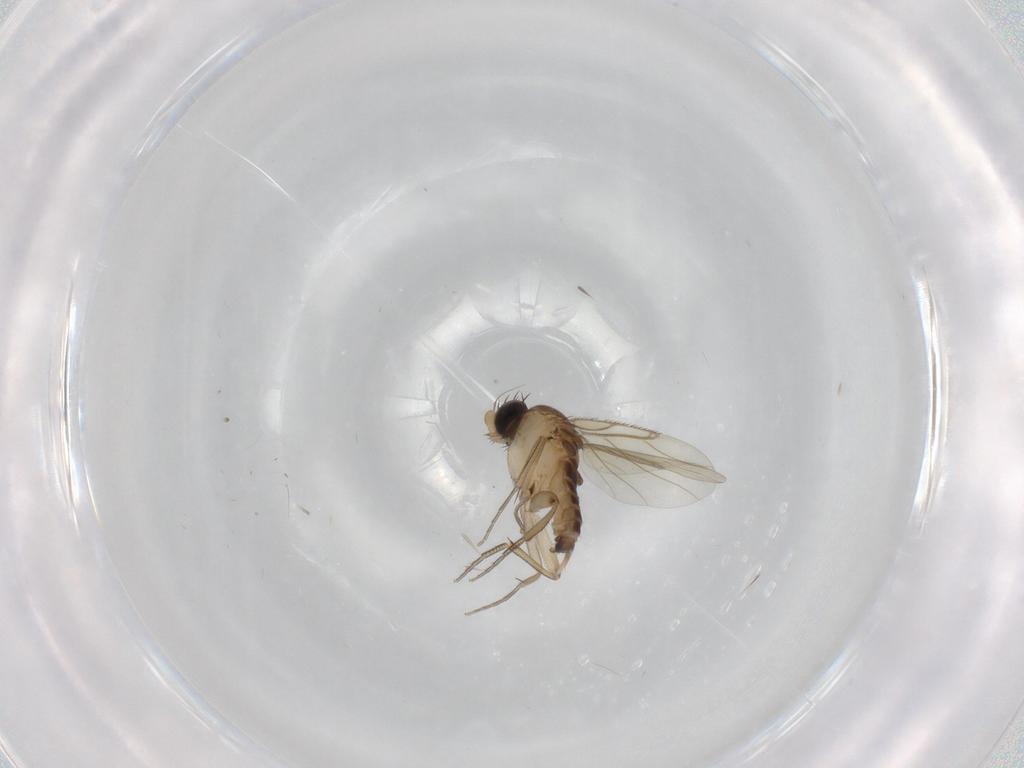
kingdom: Animalia
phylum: Arthropoda
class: Insecta
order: Diptera
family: Phoridae
